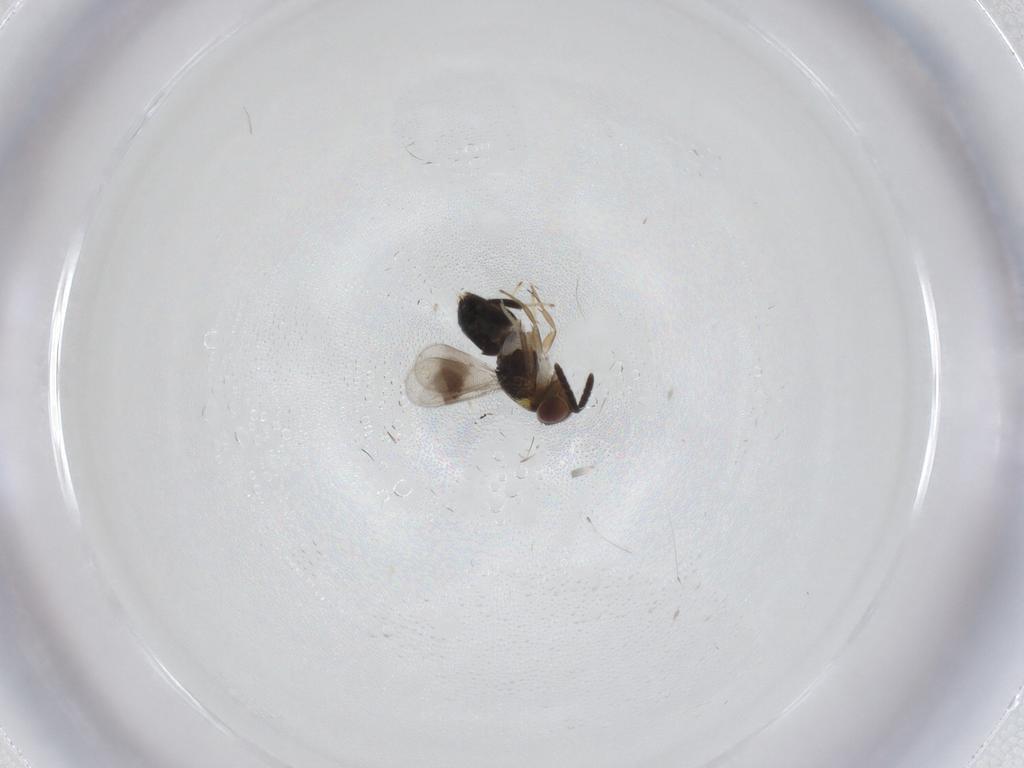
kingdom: Animalia
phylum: Arthropoda
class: Insecta
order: Hymenoptera
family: Aphelinidae
